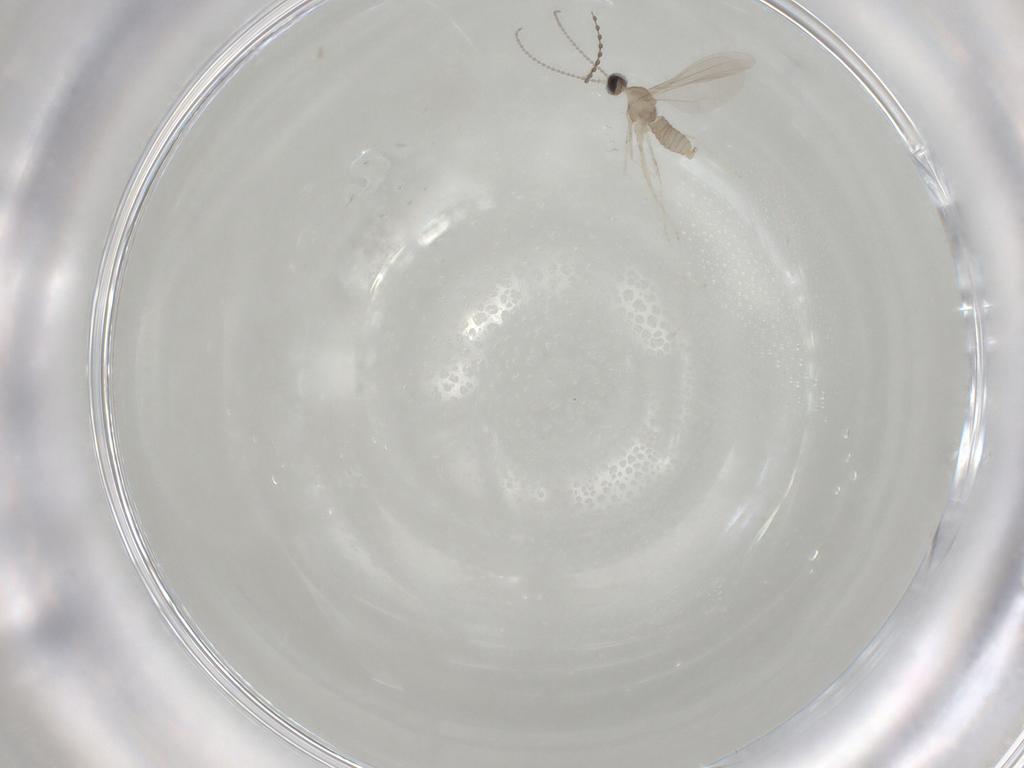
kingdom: Animalia
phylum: Arthropoda
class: Insecta
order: Diptera
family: Cecidomyiidae
